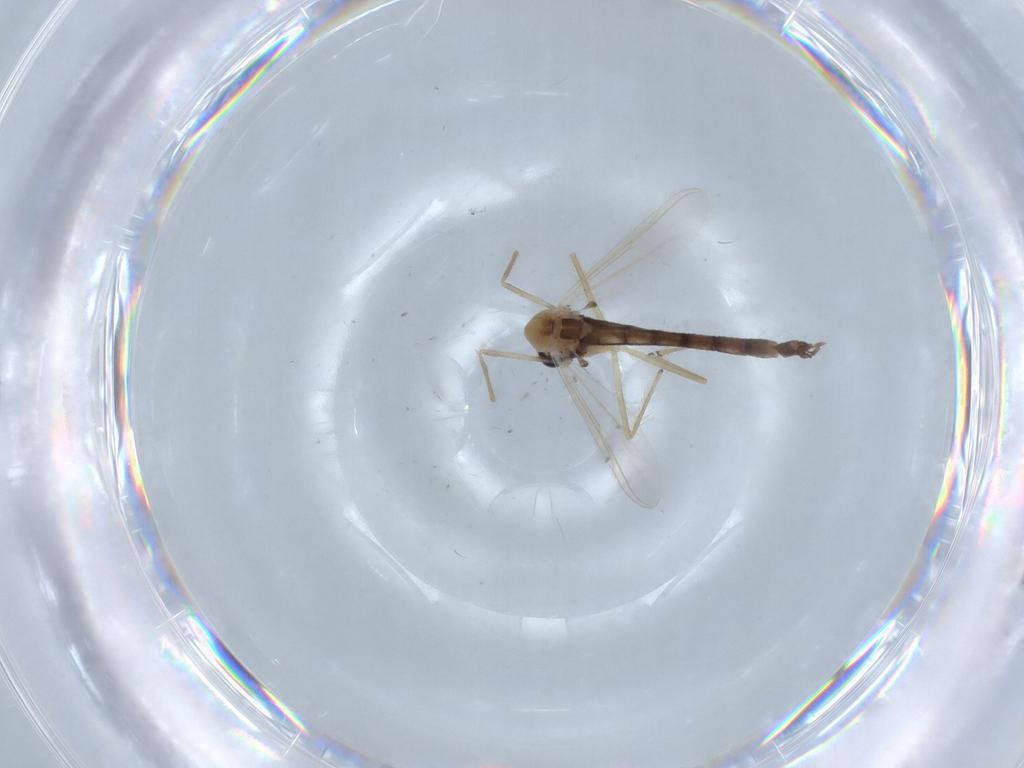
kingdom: Animalia
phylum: Arthropoda
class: Insecta
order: Diptera
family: Chironomidae
